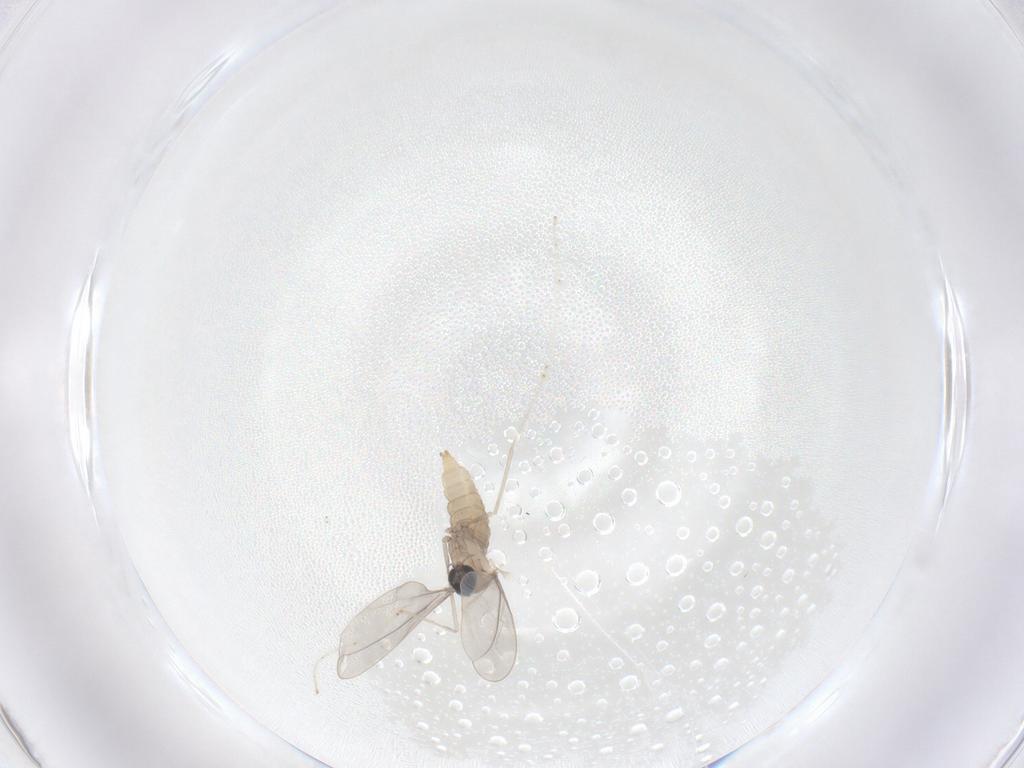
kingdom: Animalia
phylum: Arthropoda
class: Insecta
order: Diptera
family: Cecidomyiidae
